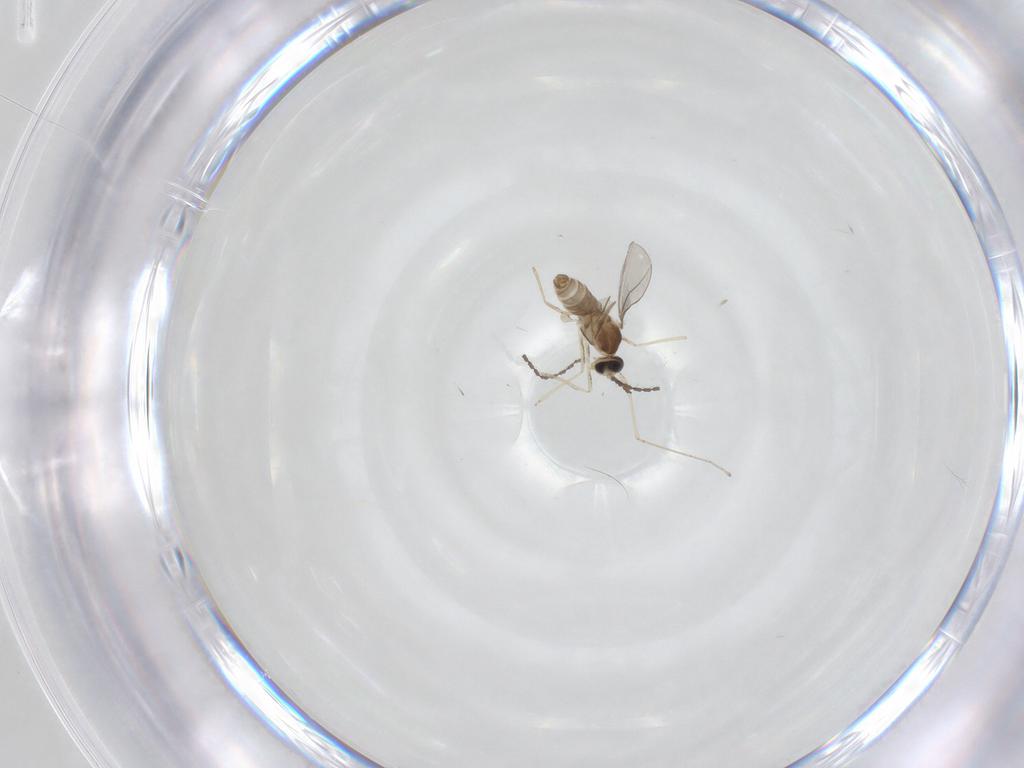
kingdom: Animalia
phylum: Arthropoda
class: Insecta
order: Diptera
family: Cecidomyiidae
